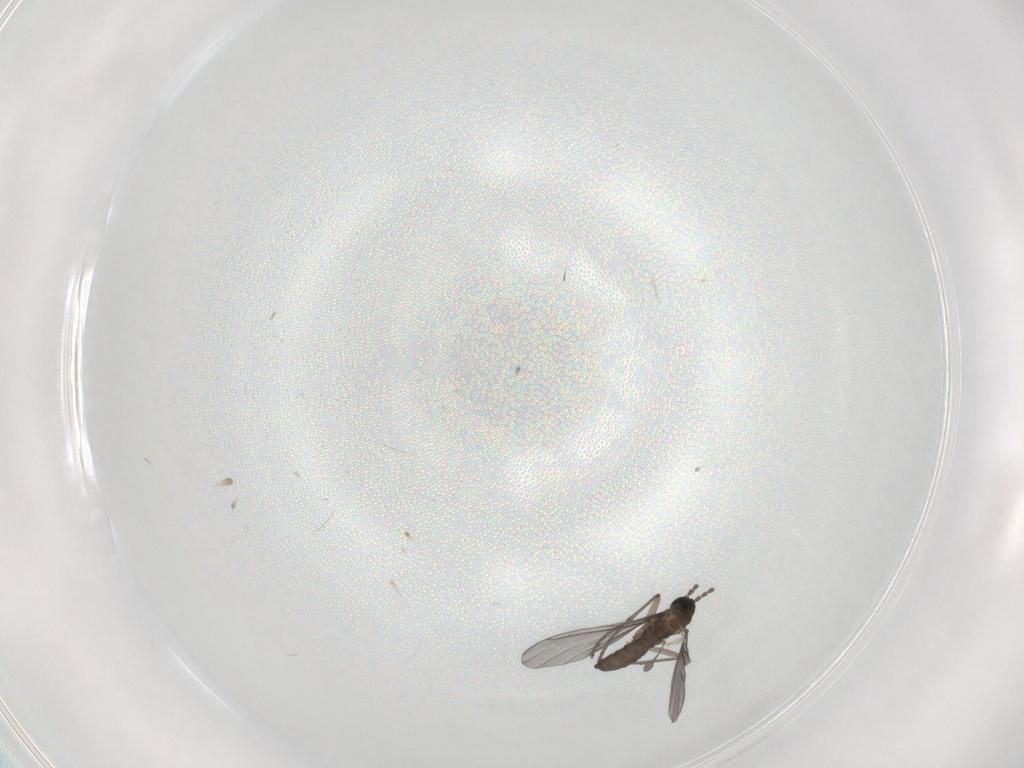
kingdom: Animalia
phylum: Arthropoda
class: Insecta
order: Diptera
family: Sciaridae
